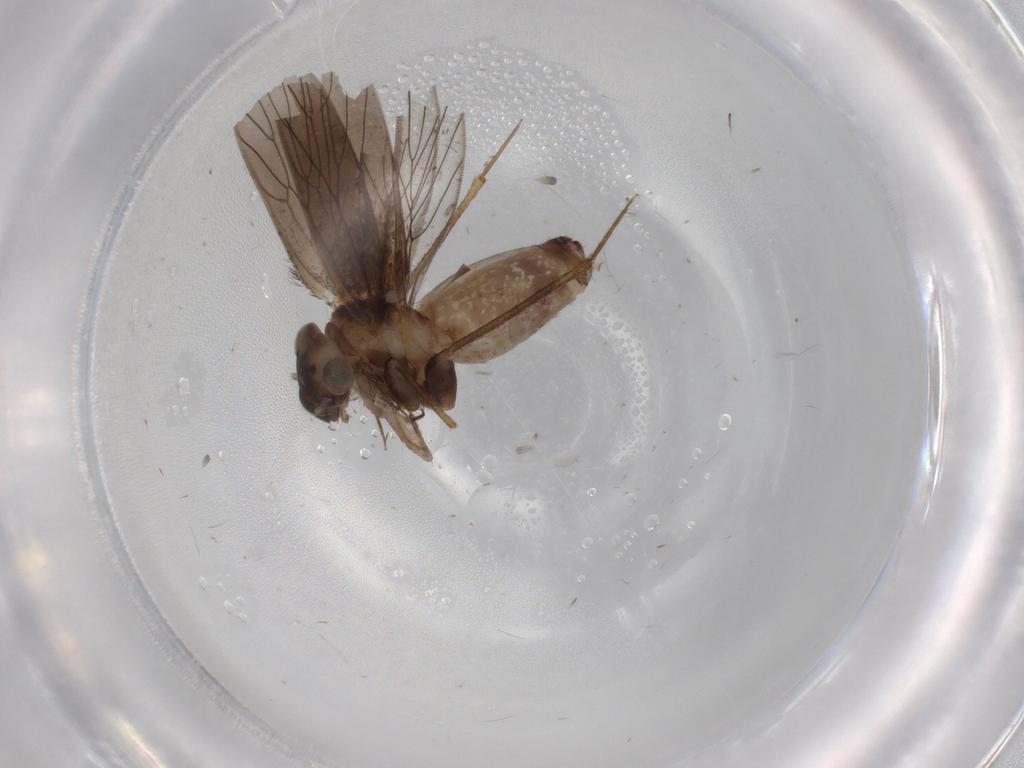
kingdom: Animalia
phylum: Arthropoda
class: Insecta
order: Psocodea
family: Lepidopsocidae
